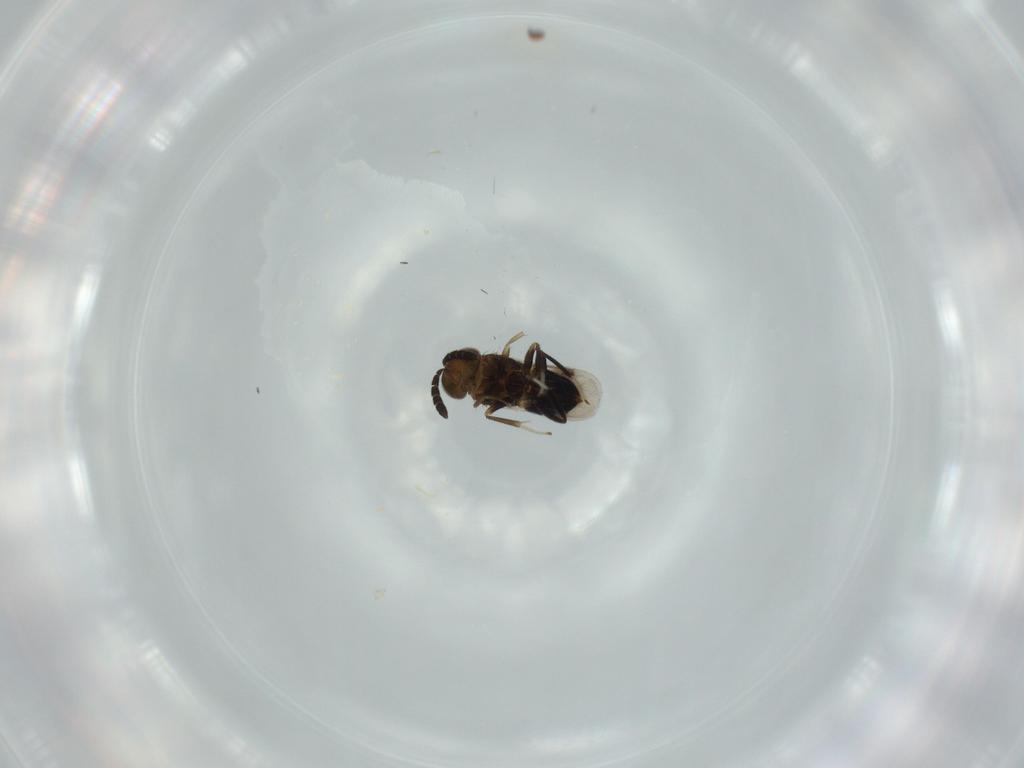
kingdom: Animalia
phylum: Arthropoda
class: Insecta
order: Hymenoptera
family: Aphelinidae
